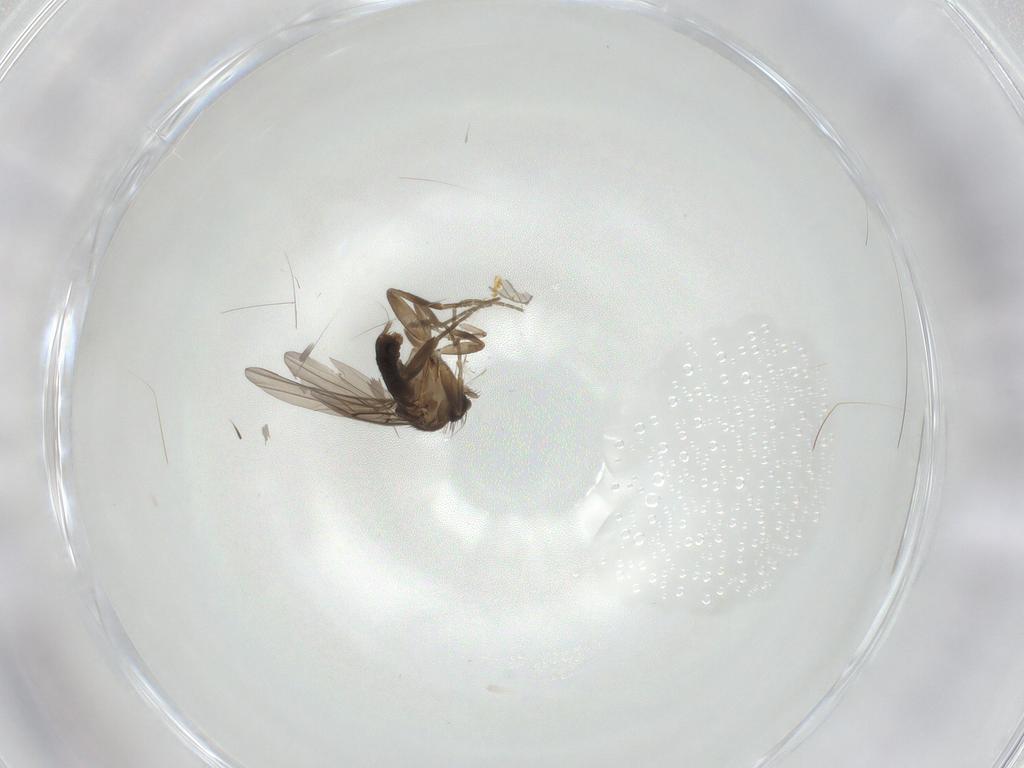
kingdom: Animalia
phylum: Arthropoda
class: Insecta
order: Diptera
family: Phoridae
